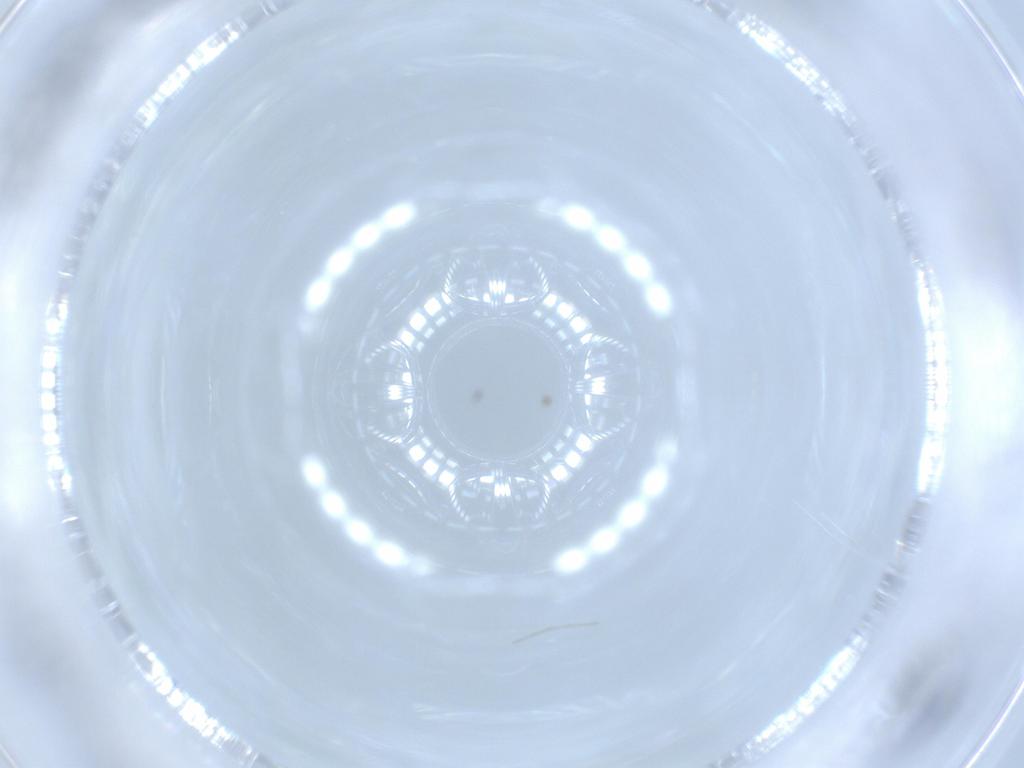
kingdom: Animalia
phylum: Arthropoda
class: Insecta
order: Diptera
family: Cecidomyiidae
